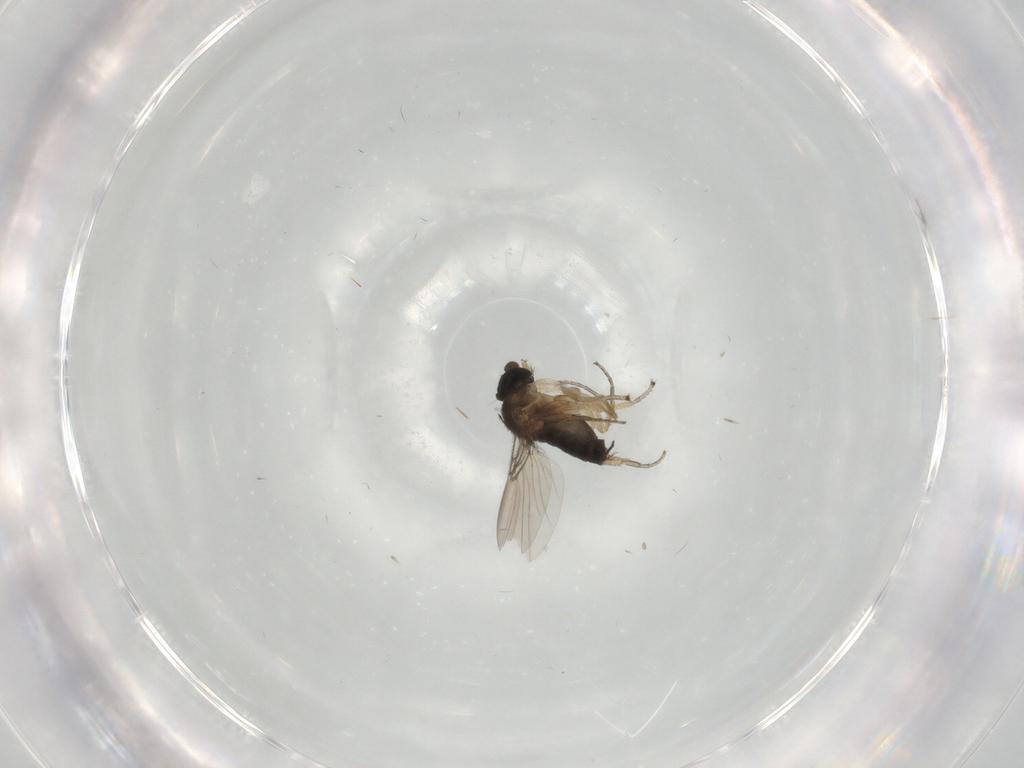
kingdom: Animalia
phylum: Arthropoda
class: Insecta
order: Diptera
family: Phoridae
